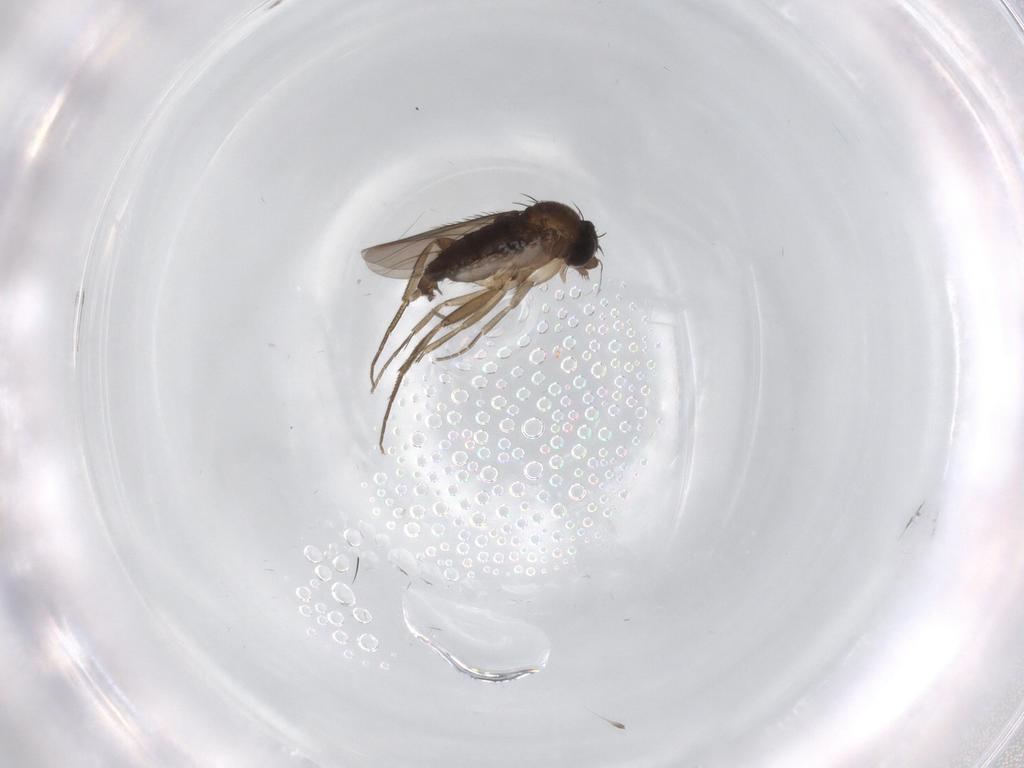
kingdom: Animalia
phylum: Arthropoda
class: Insecta
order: Diptera
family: Phoridae
